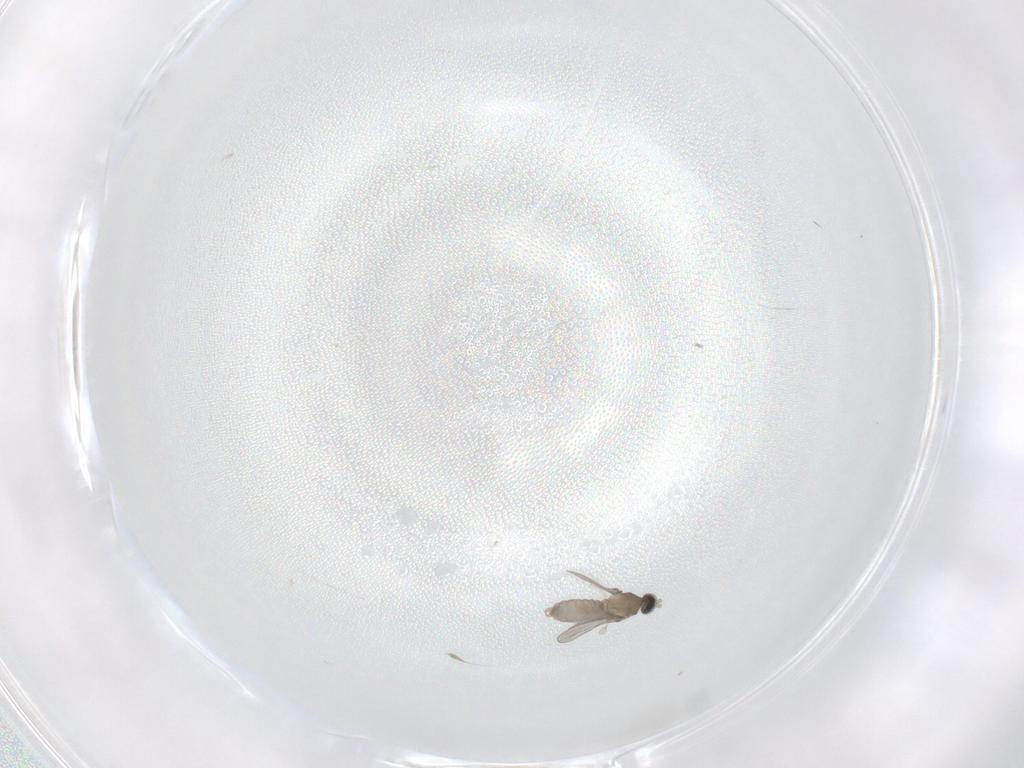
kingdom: Animalia
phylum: Arthropoda
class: Insecta
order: Diptera
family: Cecidomyiidae
